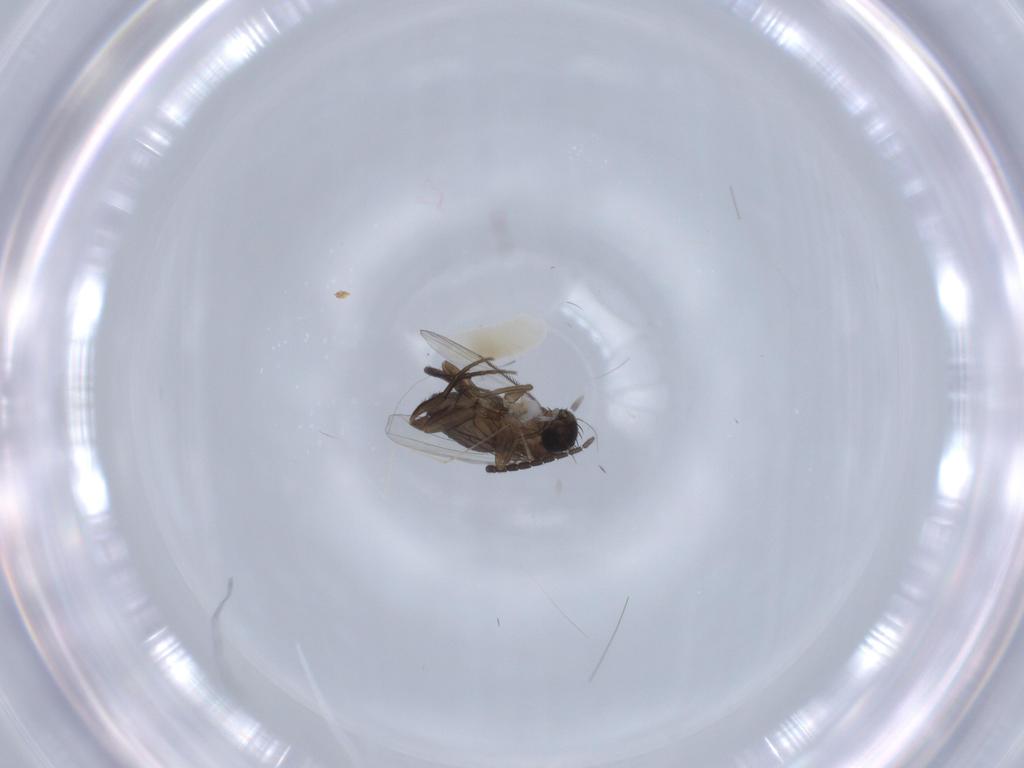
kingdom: Animalia
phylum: Arthropoda
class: Insecta
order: Diptera
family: Phoridae
